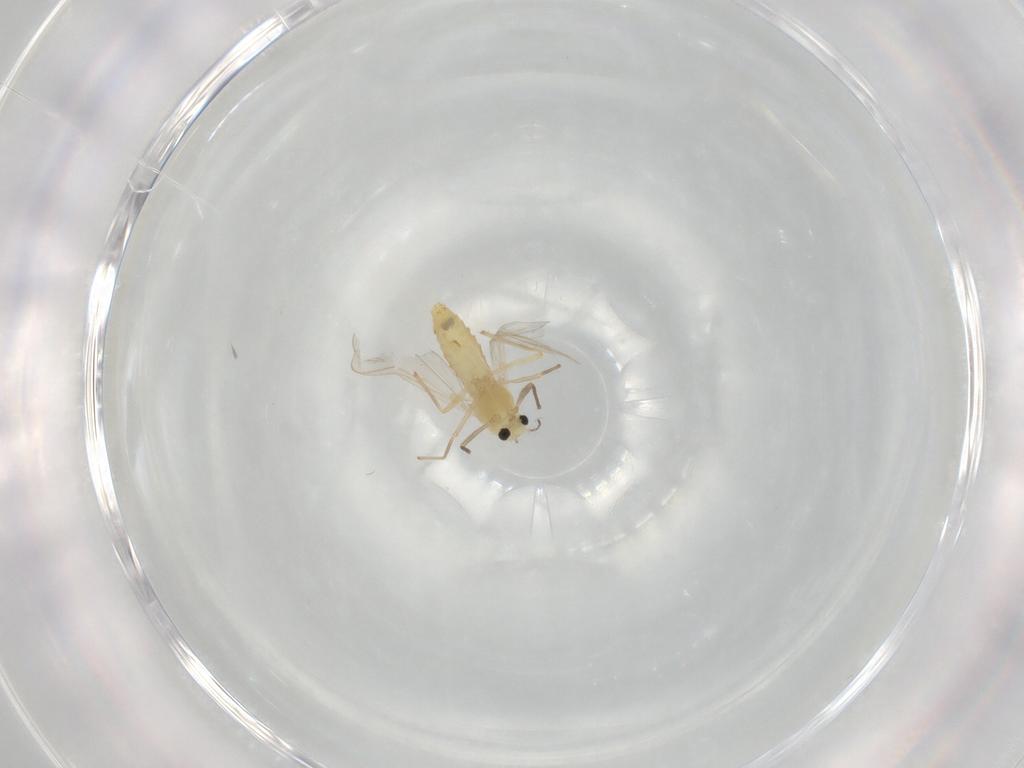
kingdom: Animalia
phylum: Arthropoda
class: Insecta
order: Diptera
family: Chironomidae
